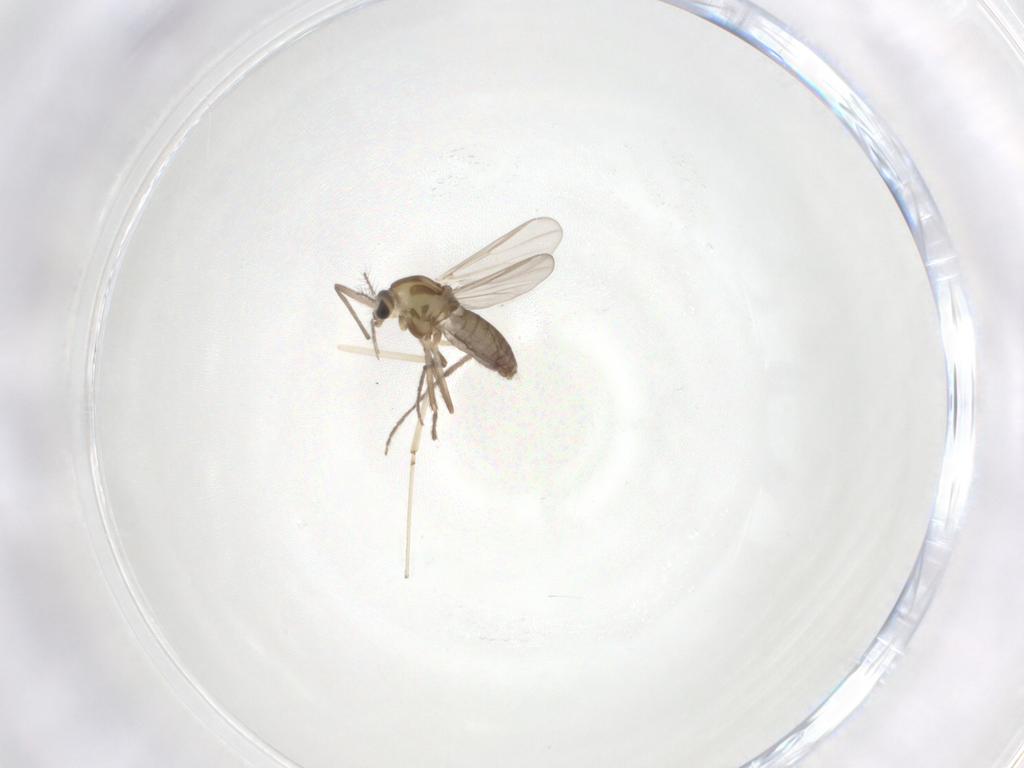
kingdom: Animalia
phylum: Arthropoda
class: Insecta
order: Diptera
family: Chironomidae
